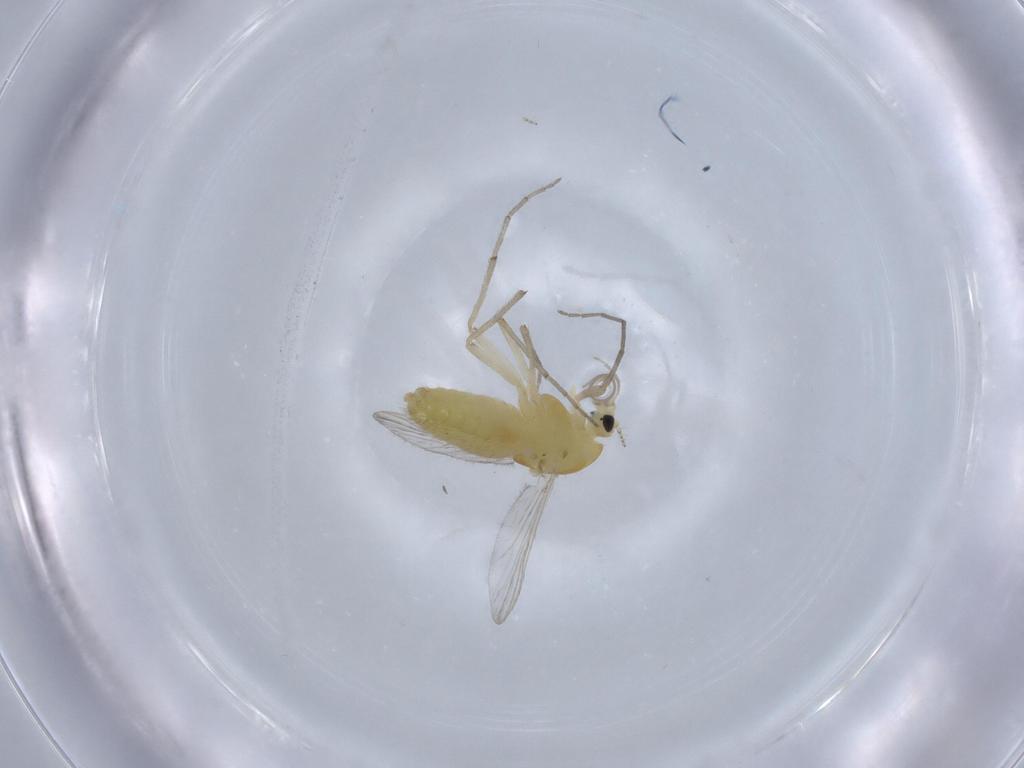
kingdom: Animalia
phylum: Arthropoda
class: Insecta
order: Diptera
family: Chironomidae
